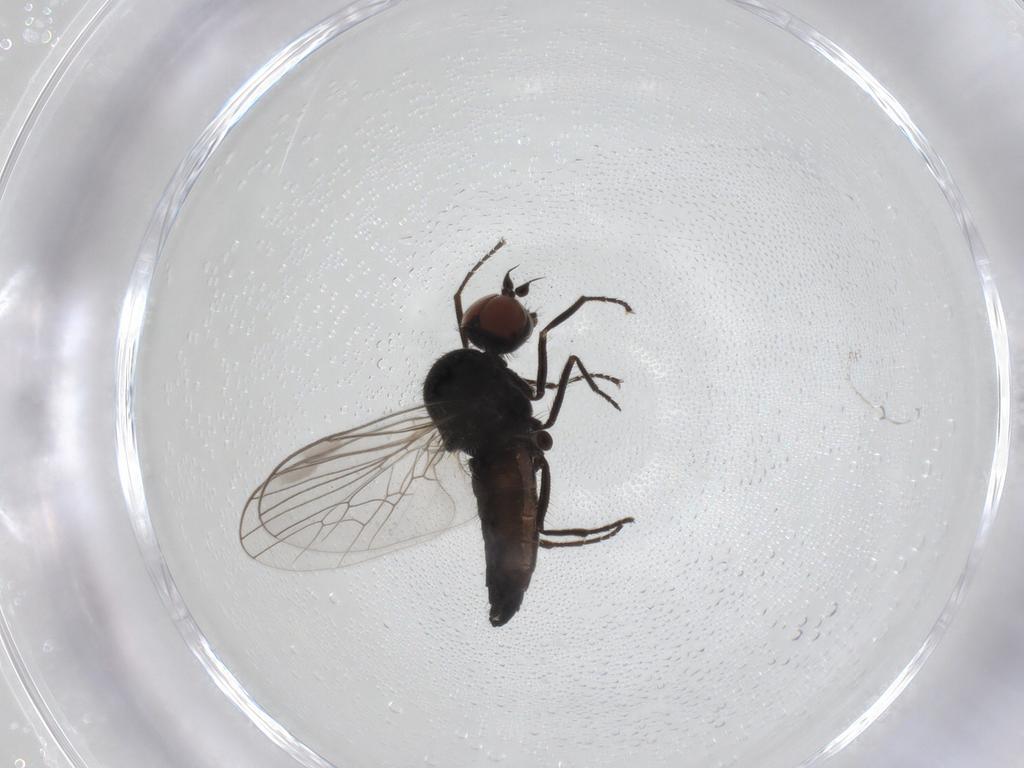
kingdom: Animalia
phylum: Arthropoda
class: Insecta
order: Diptera
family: Hybotidae
